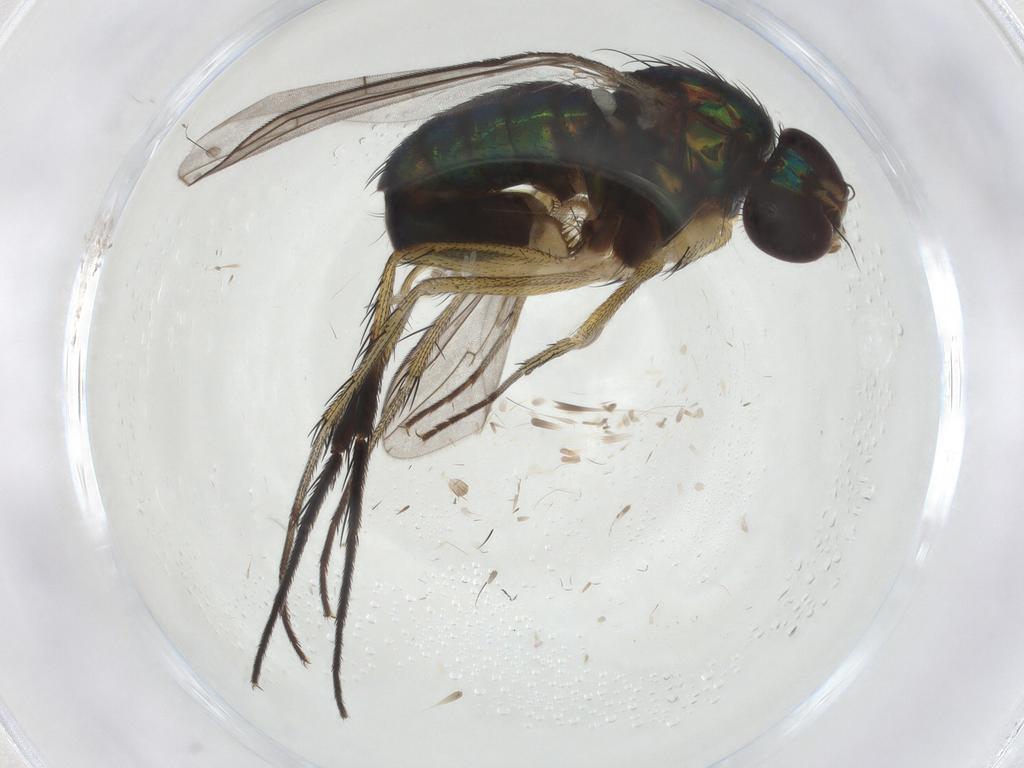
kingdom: Animalia
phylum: Arthropoda
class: Insecta
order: Diptera
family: Dolichopodidae
